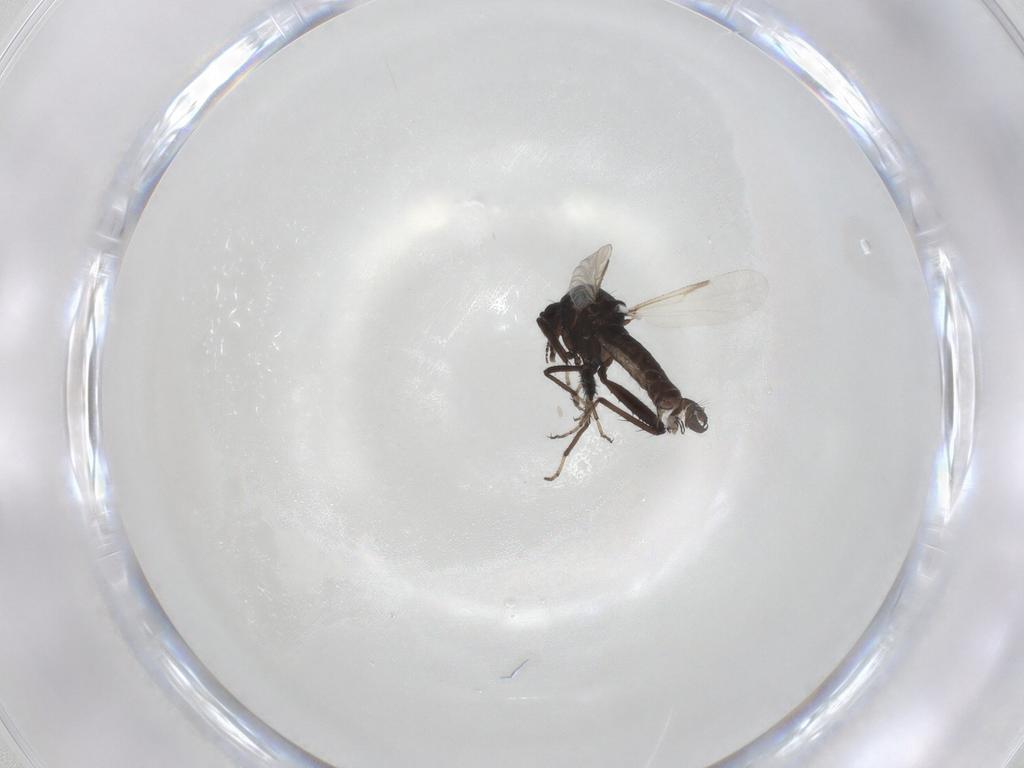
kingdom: Animalia
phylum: Arthropoda
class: Insecta
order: Diptera
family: Ceratopogonidae
